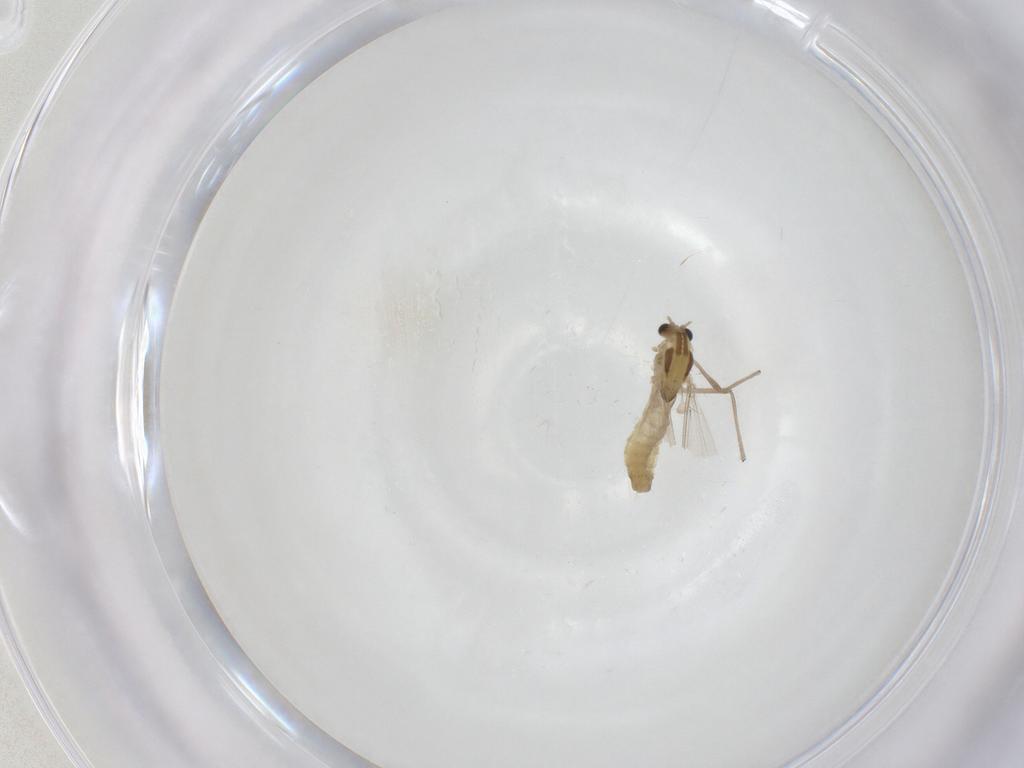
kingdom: Animalia
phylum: Arthropoda
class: Insecta
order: Diptera
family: Chironomidae
